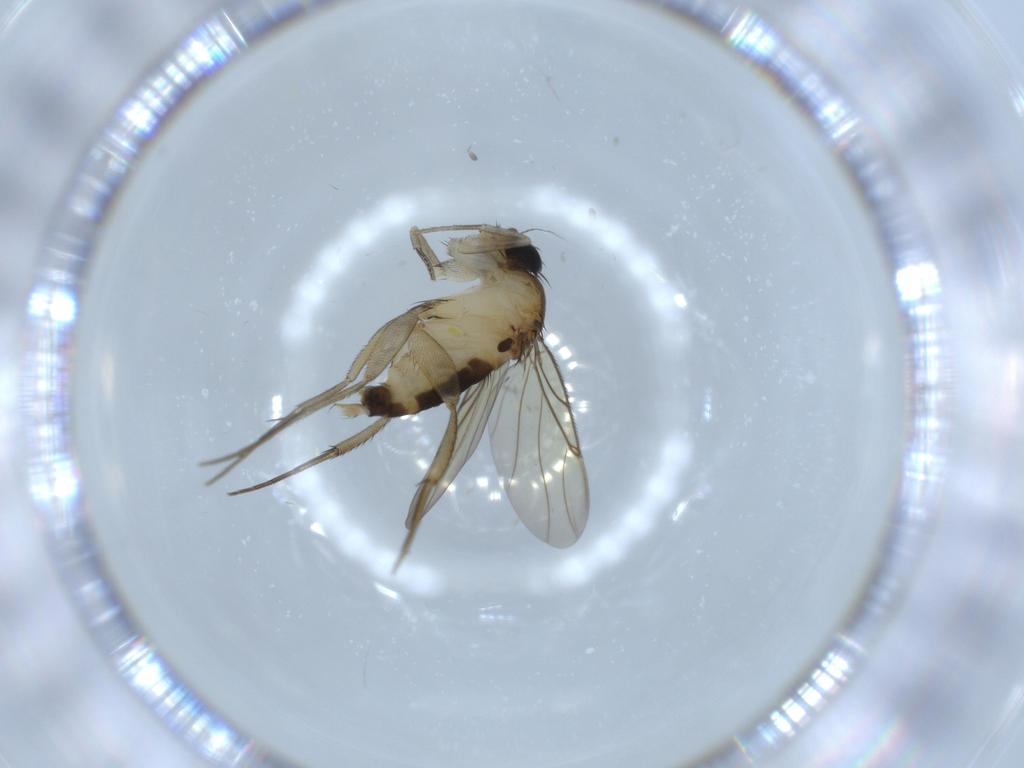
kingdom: Animalia
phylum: Arthropoda
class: Insecta
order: Diptera
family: Phoridae
